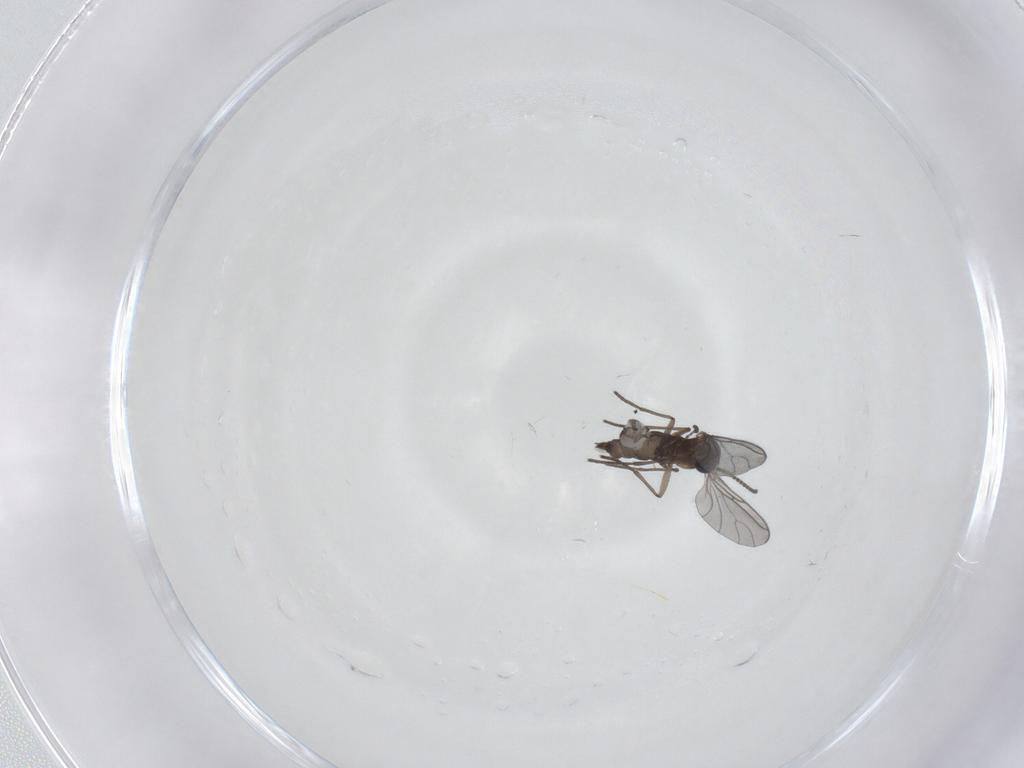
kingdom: Animalia
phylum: Arthropoda
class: Insecta
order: Diptera
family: Sciaridae
